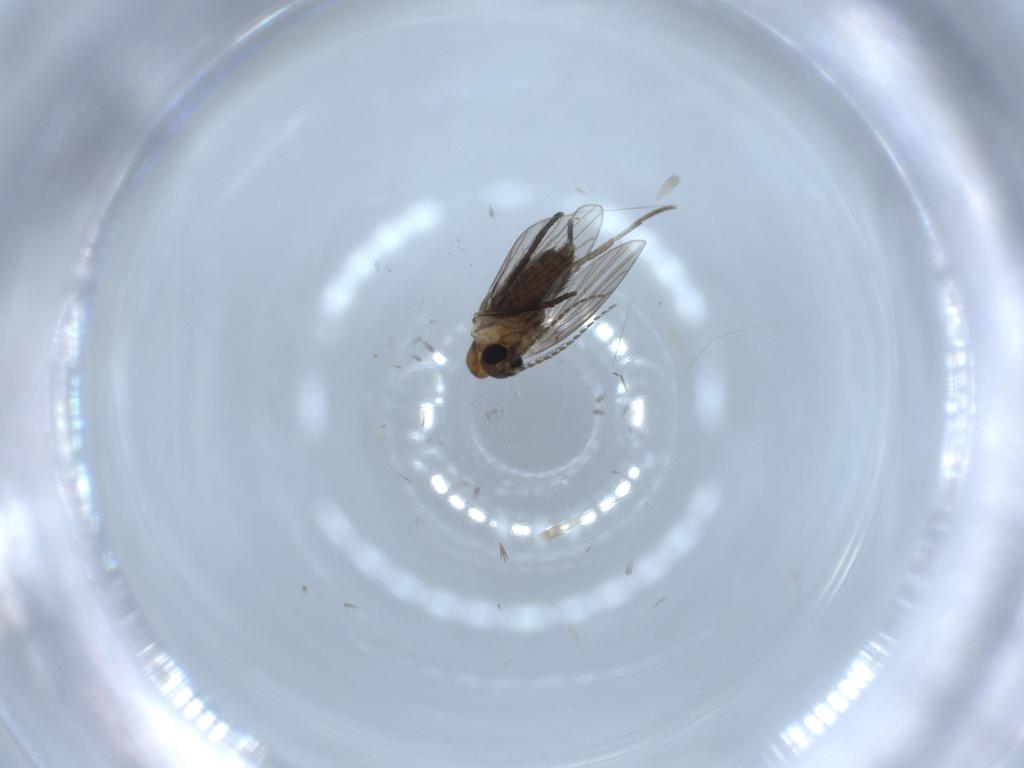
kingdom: Animalia
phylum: Arthropoda
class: Insecta
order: Diptera
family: Psychodidae
